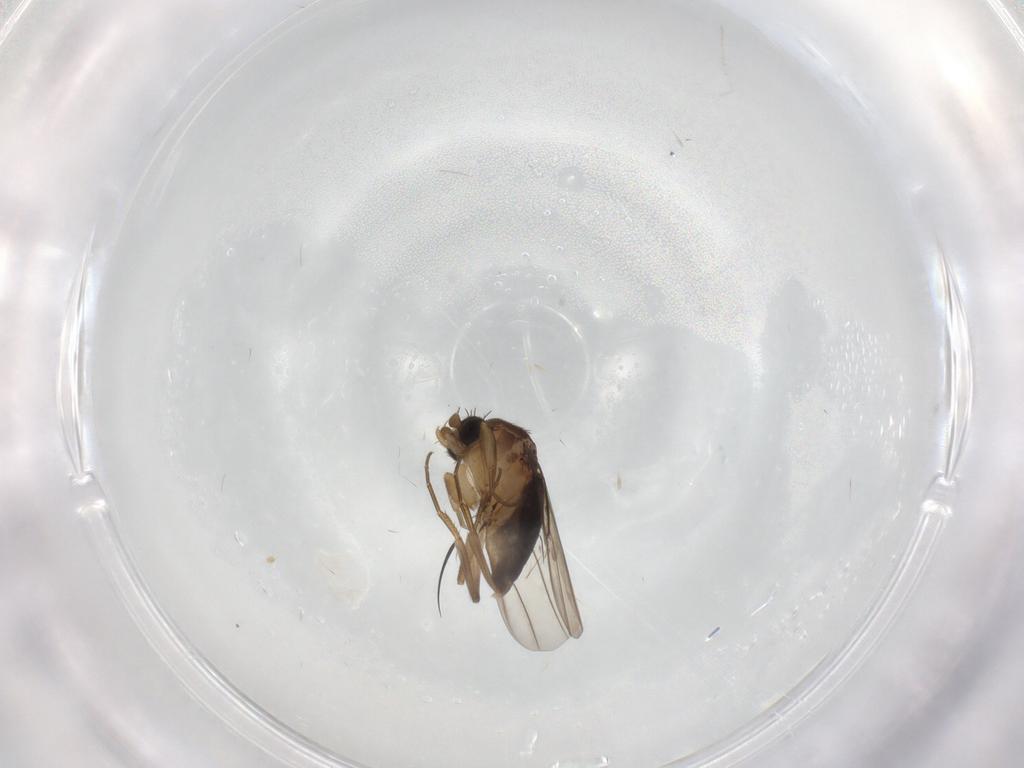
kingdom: Animalia
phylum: Arthropoda
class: Insecta
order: Diptera
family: Phoridae
